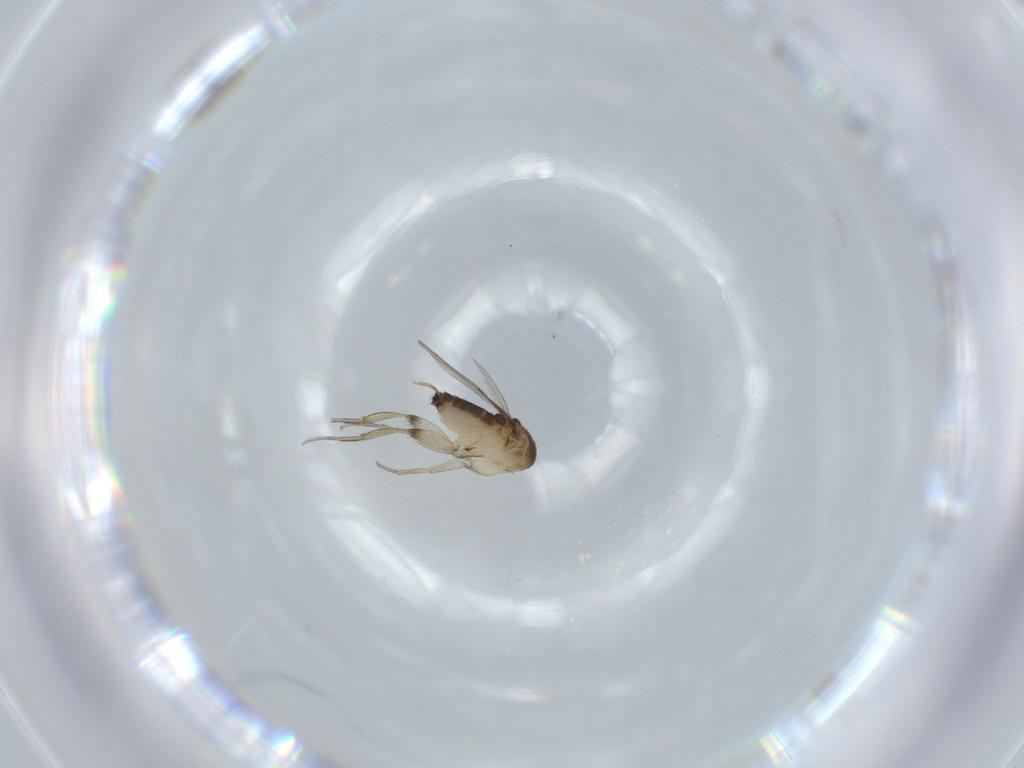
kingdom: Animalia
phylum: Arthropoda
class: Insecta
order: Diptera
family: Phoridae
